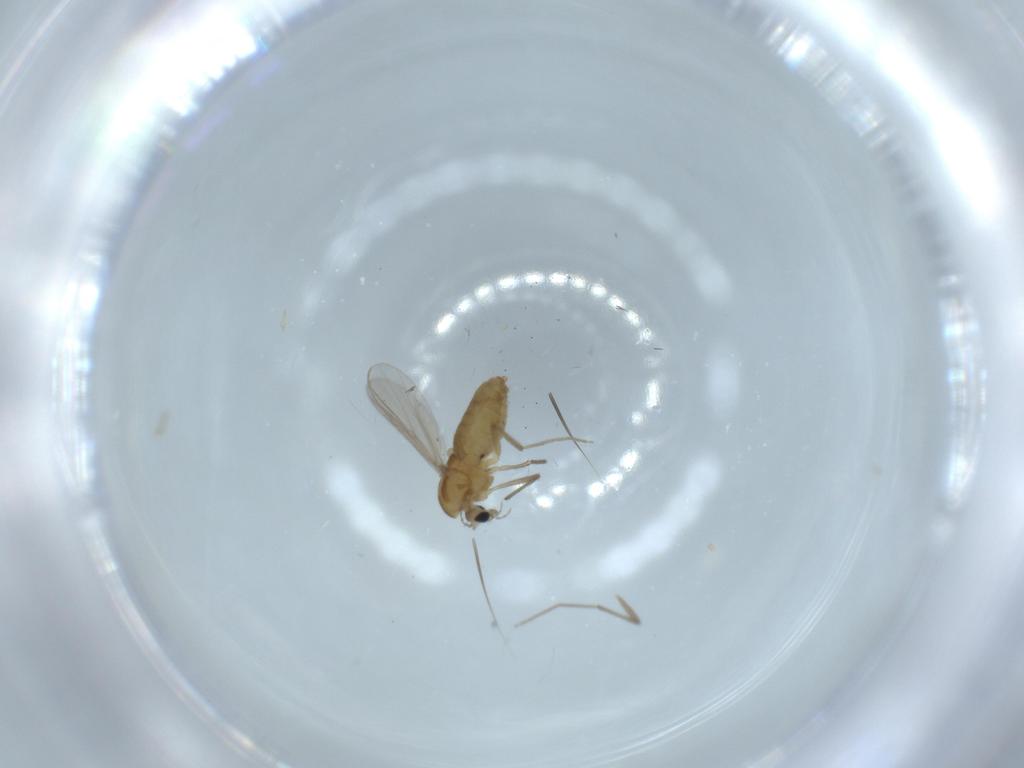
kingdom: Animalia
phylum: Arthropoda
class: Insecta
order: Diptera
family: Chironomidae
